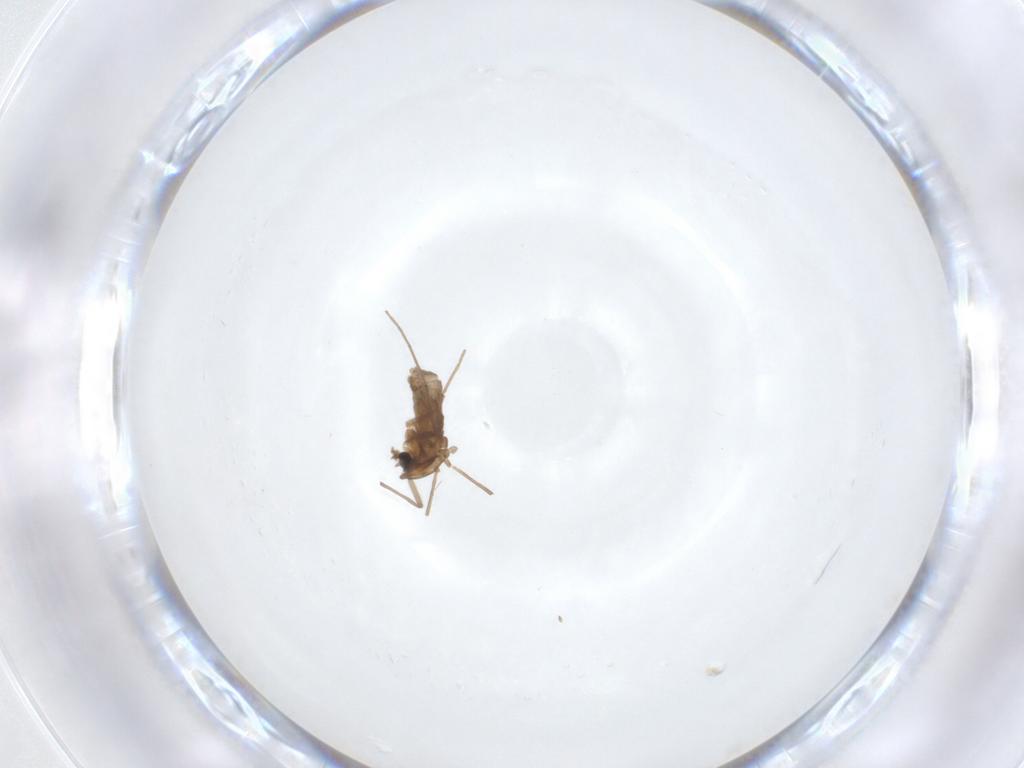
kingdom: Animalia
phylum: Arthropoda
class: Insecta
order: Diptera
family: Chironomidae
